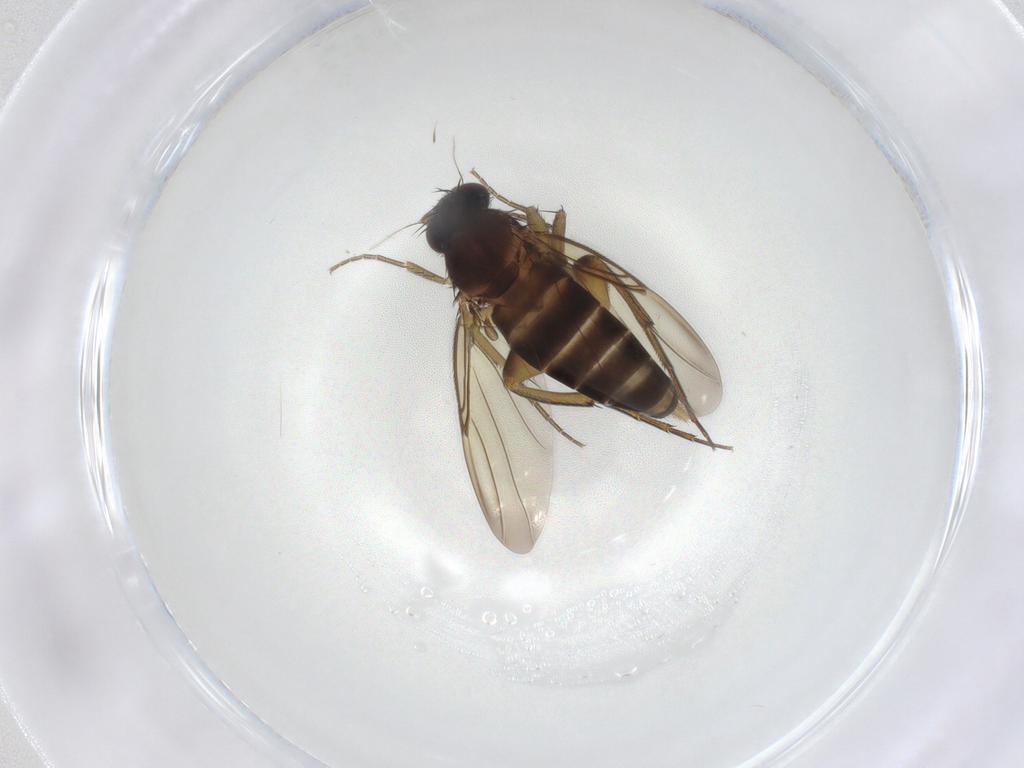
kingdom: Animalia
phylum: Arthropoda
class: Insecta
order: Diptera
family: Phoridae
